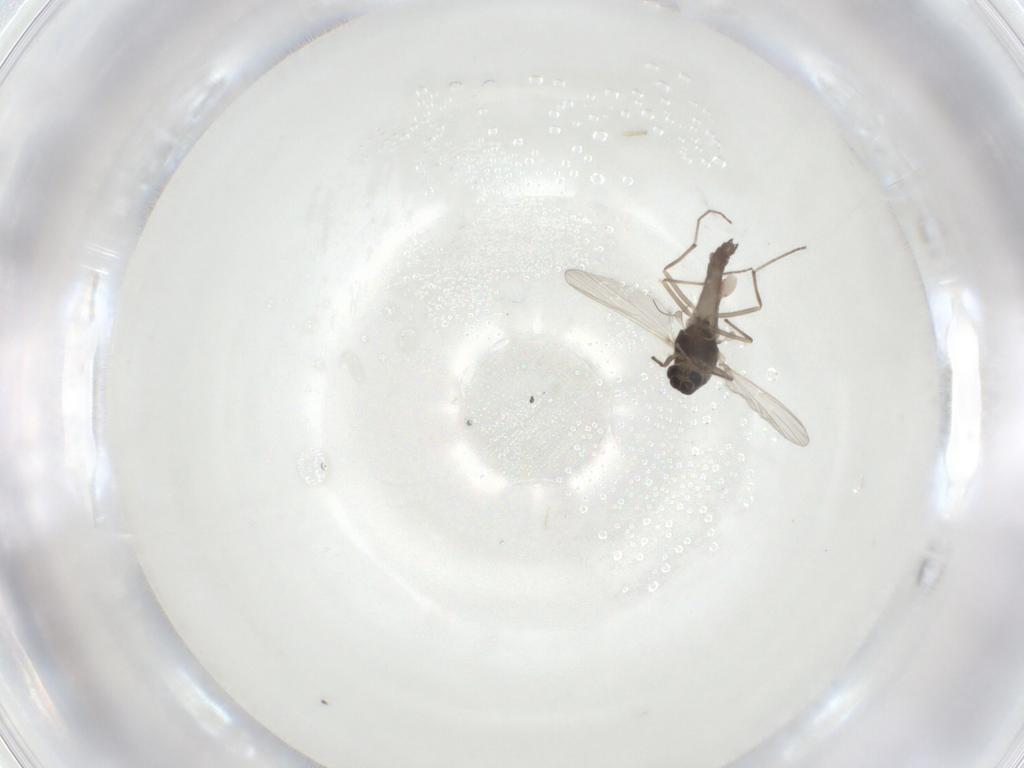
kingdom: Animalia
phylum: Arthropoda
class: Insecta
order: Diptera
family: Chironomidae
